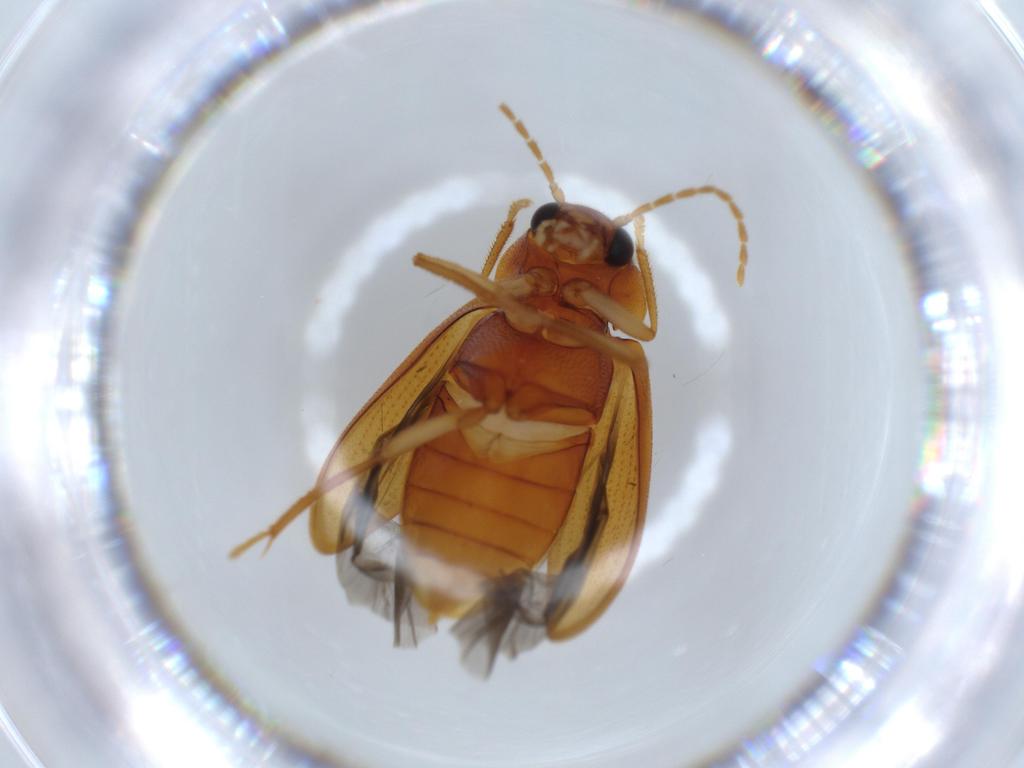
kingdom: Animalia
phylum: Arthropoda
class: Insecta
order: Coleoptera
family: Ptilodactylidae
